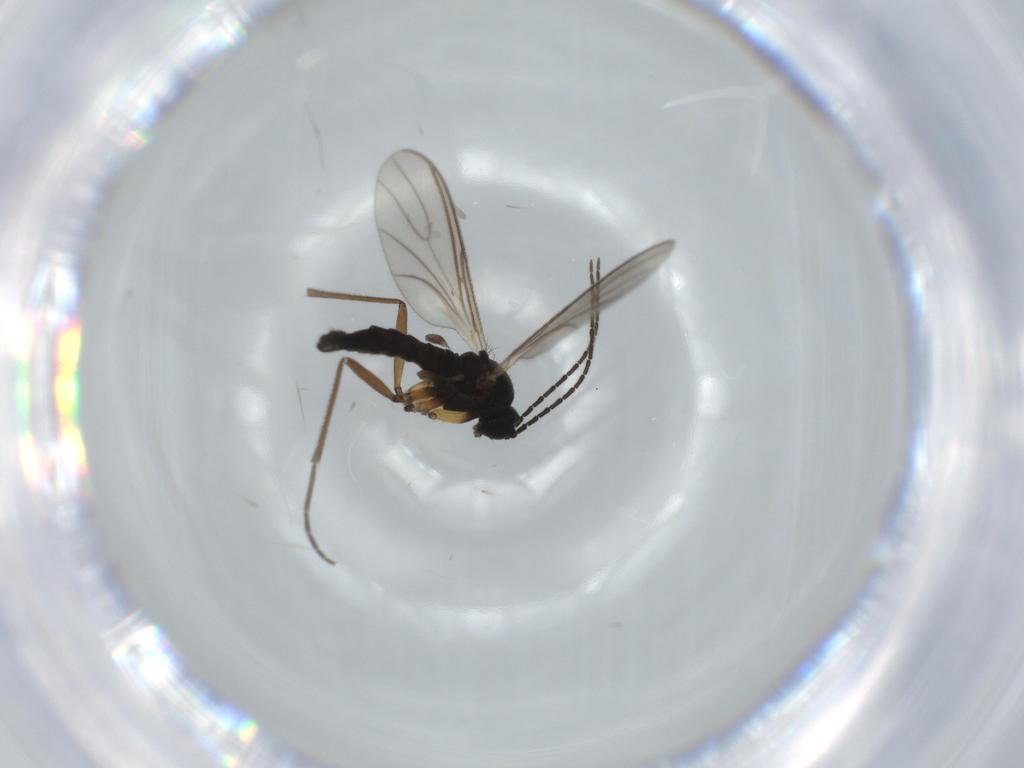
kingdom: Animalia
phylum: Arthropoda
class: Insecta
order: Diptera
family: Sciaridae
